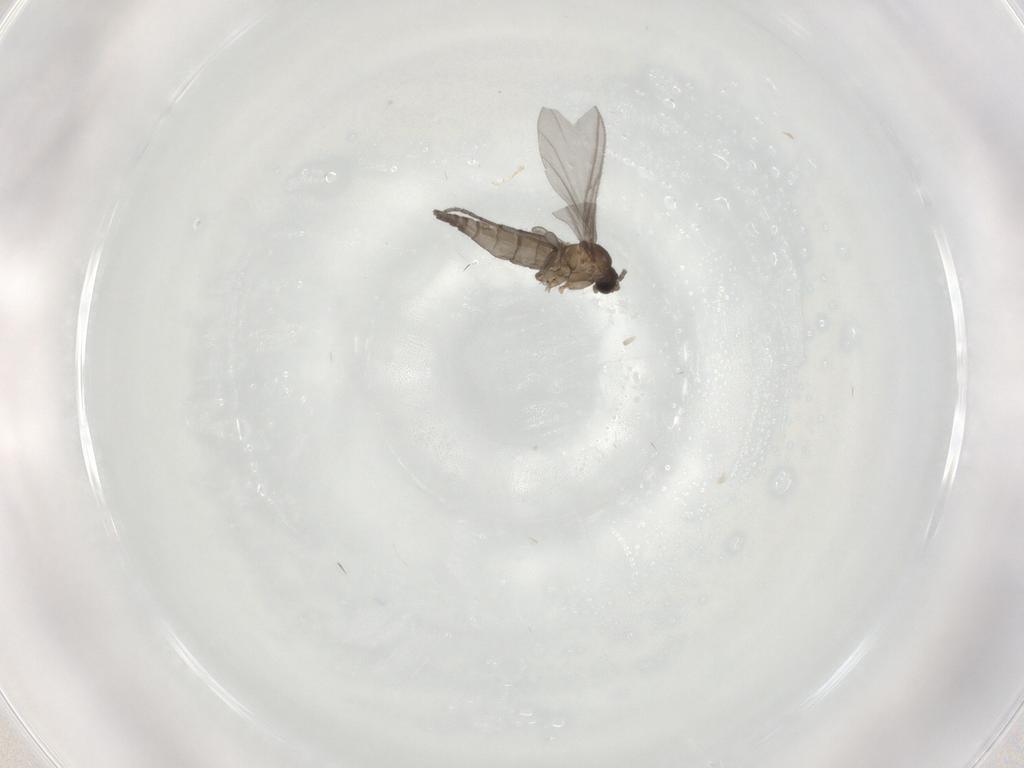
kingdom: Animalia
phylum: Arthropoda
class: Insecta
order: Diptera
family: Sciaridae
